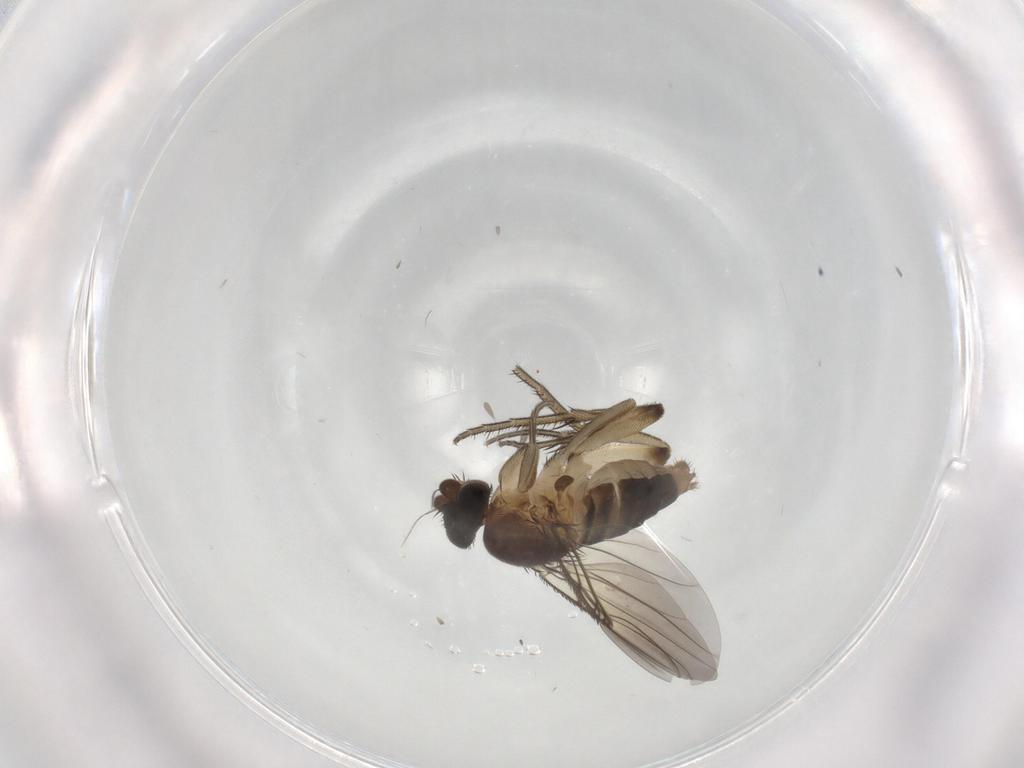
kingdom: Animalia
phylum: Arthropoda
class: Insecta
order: Diptera
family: Phoridae
